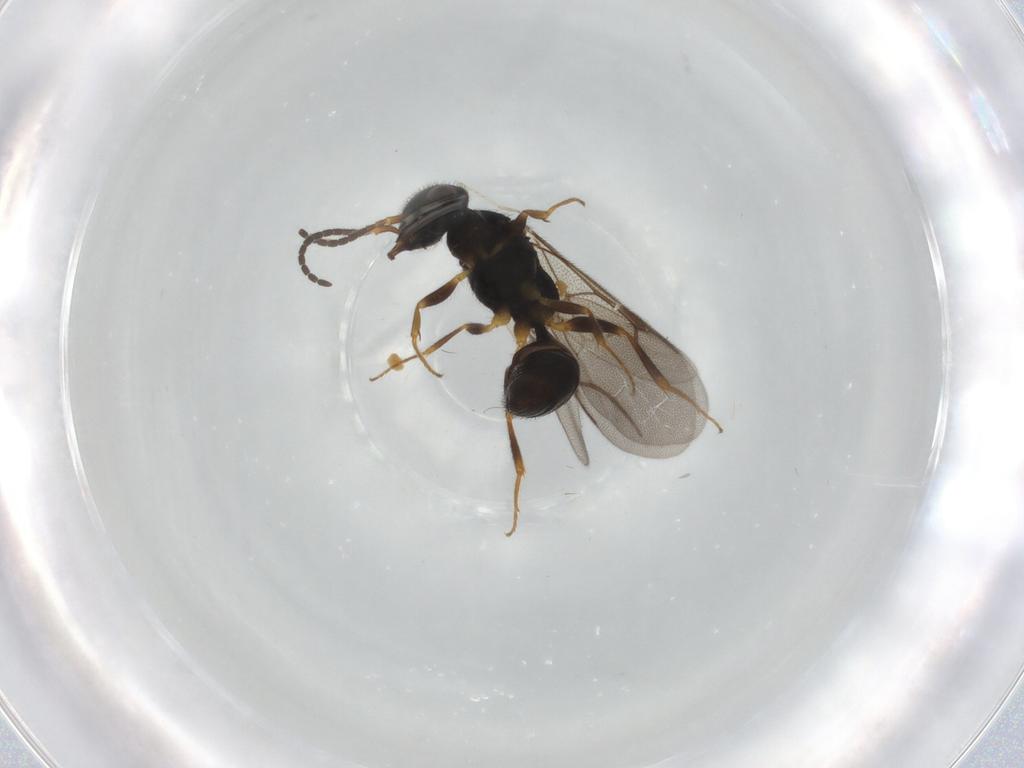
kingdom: Animalia
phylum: Arthropoda
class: Insecta
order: Hymenoptera
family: Bethylidae
